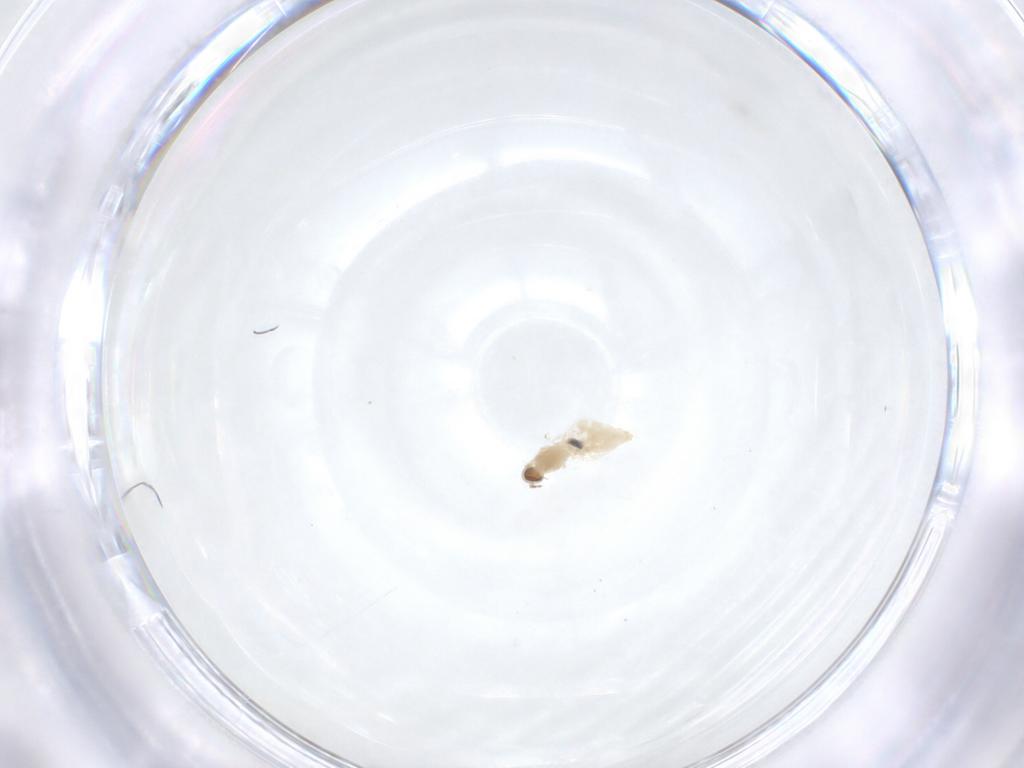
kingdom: Animalia
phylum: Arthropoda
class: Insecta
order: Diptera
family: Cecidomyiidae
